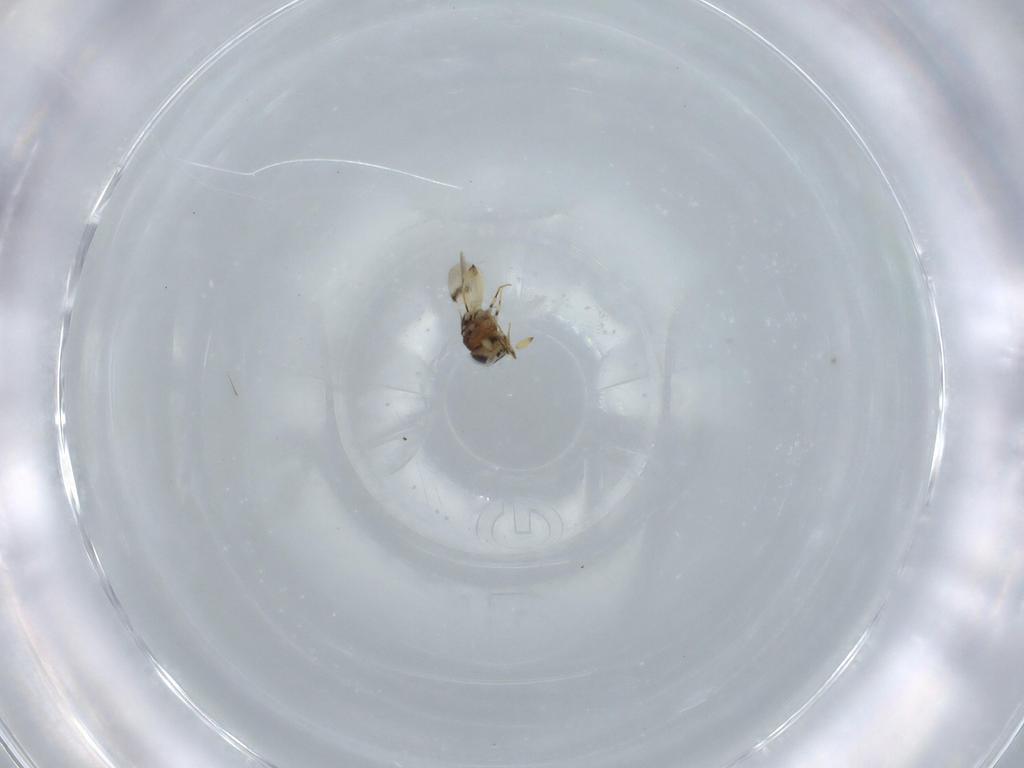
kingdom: Animalia
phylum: Arthropoda
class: Insecta
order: Hymenoptera
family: Scelionidae
